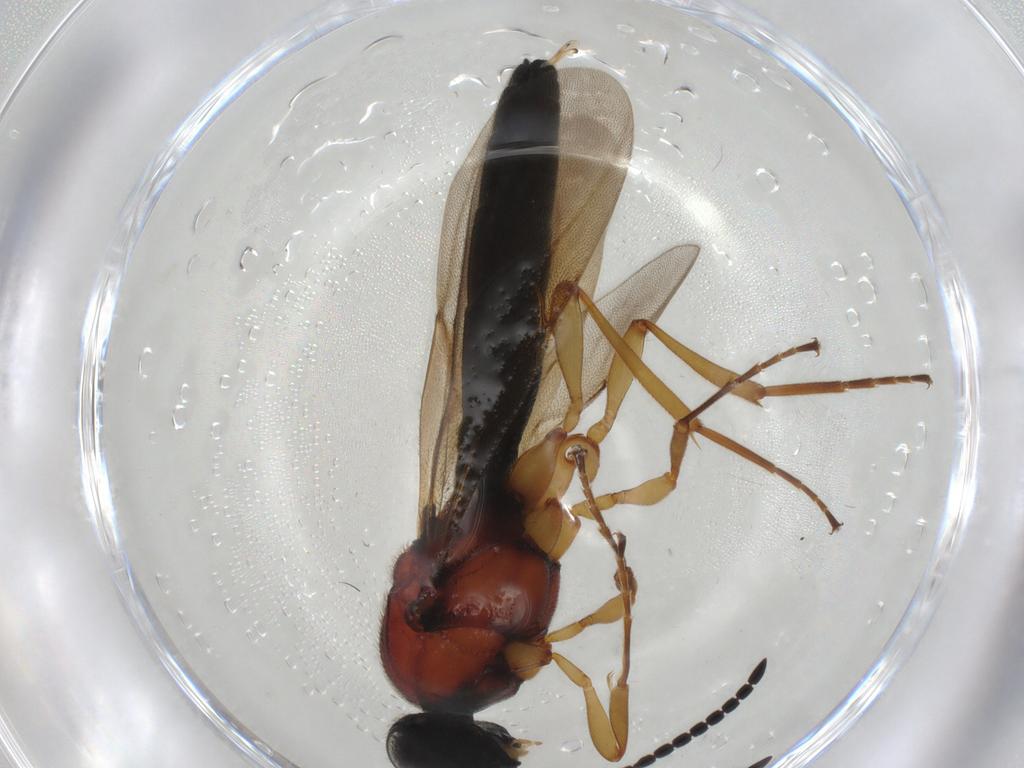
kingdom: Animalia
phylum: Arthropoda
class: Insecta
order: Hymenoptera
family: Scelionidae
